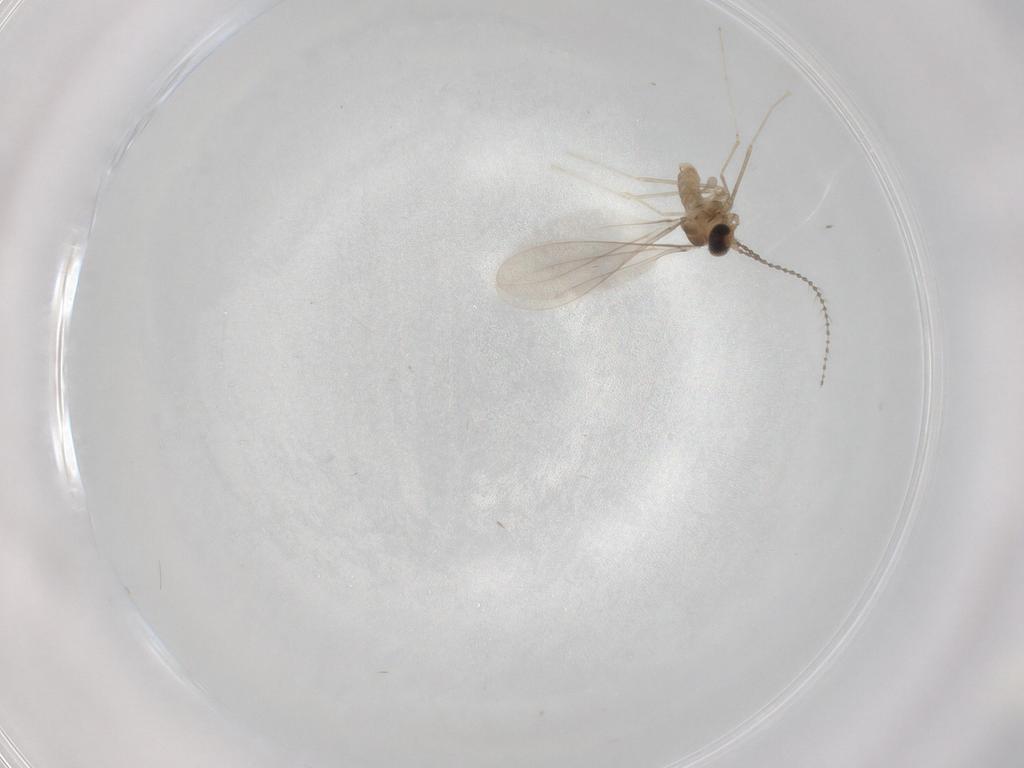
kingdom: Animalia
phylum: Arthropoda
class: Insecta
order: Diptera
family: Cecidomyiidae
